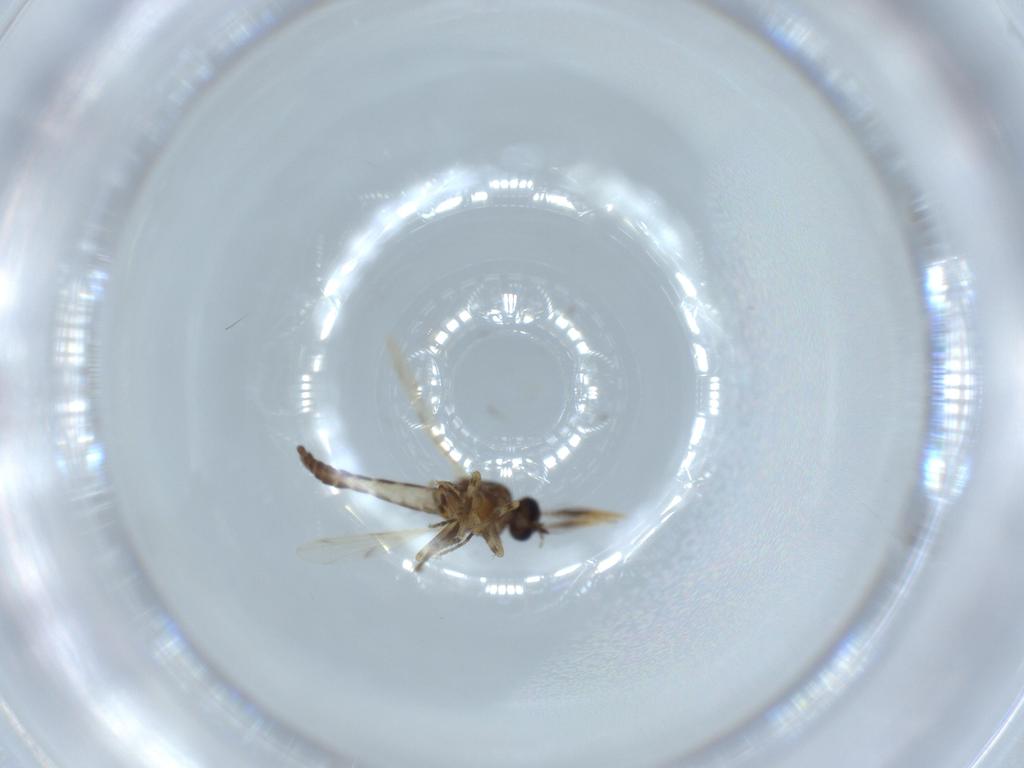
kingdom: Animalia
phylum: Arthropoda
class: Insecta
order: Diptera
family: Ceratopogonidae
